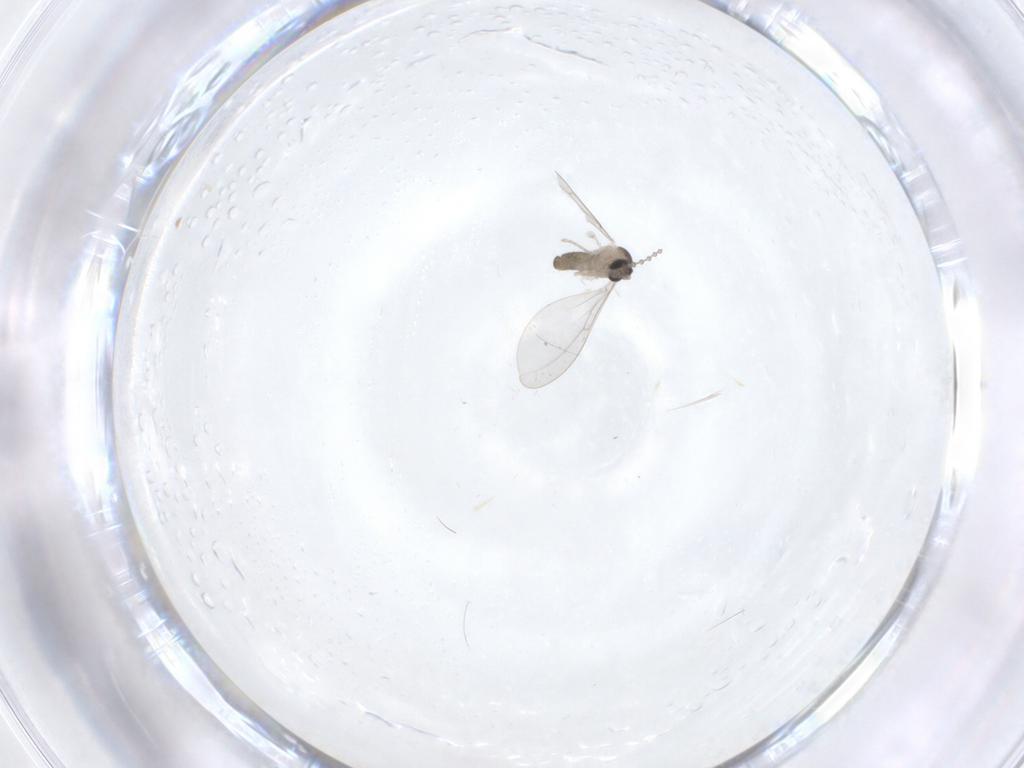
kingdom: Animalia
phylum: Arthropoda
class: Insecta
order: Diptera
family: Cecidomyiidae
